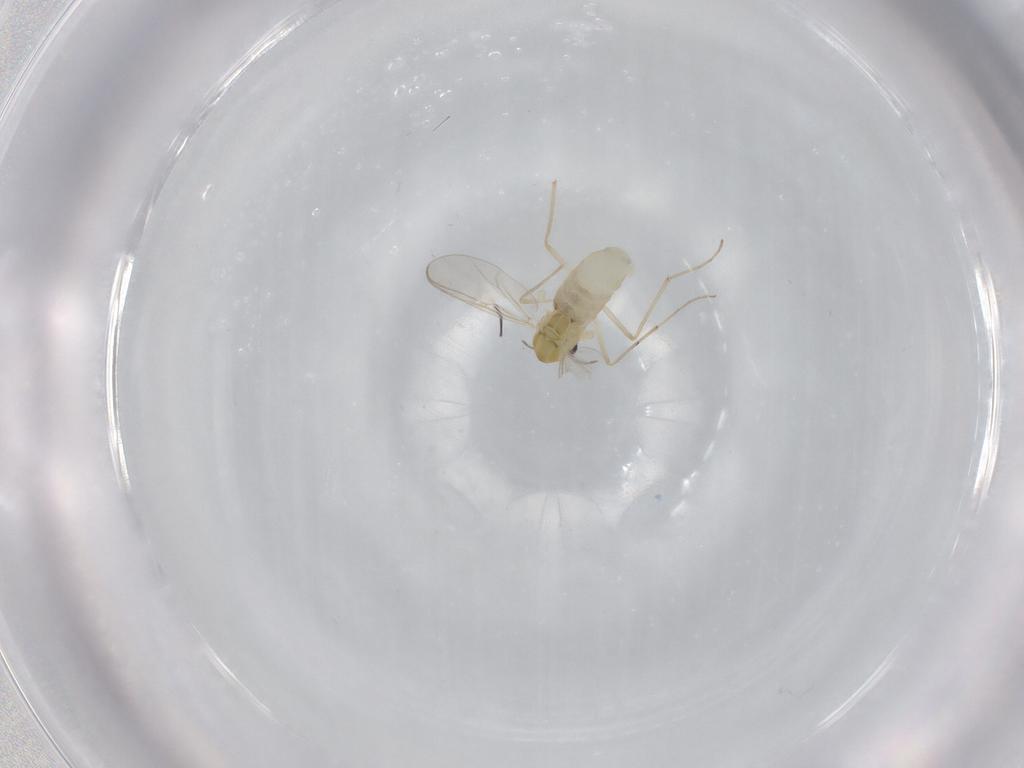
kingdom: Animalia
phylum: Arthropoda
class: Insecta
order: Diptera
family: Chironomidae
